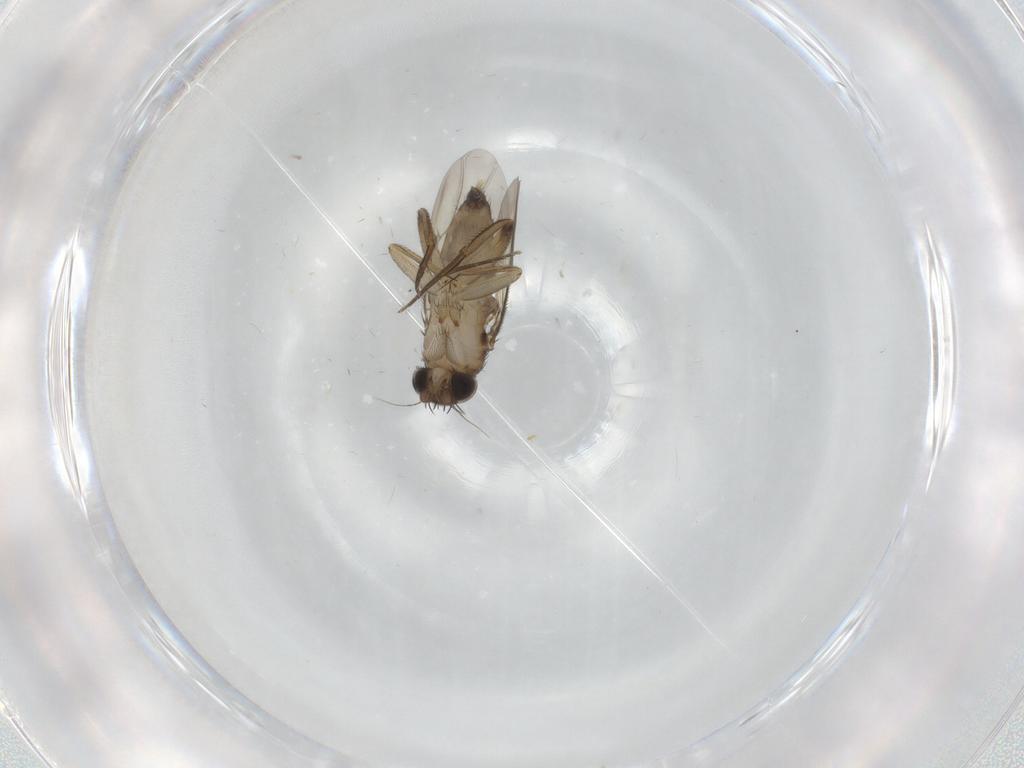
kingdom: Animalia
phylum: Arthropoda
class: Insecta
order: Diptera
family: Phoridae
